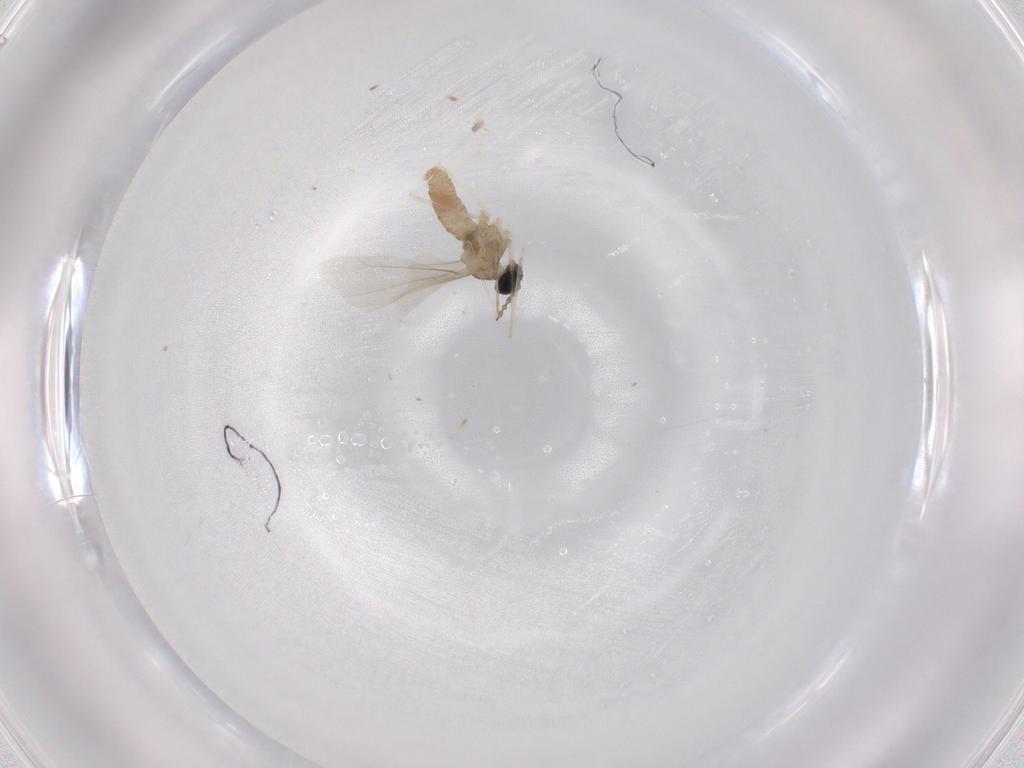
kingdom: Animalia
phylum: Arthropoda
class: Insecta
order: Diptera
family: Cecidomyiidae
